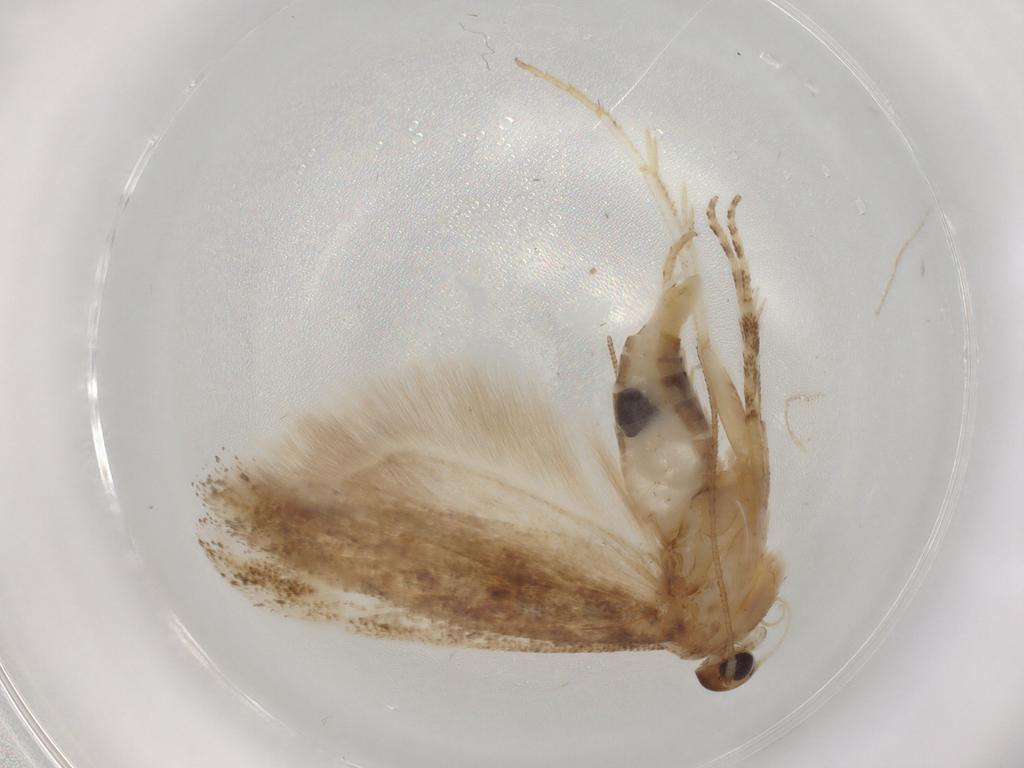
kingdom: Animalia
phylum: Arthropoda
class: Insecta
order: Lepidoptera
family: Gelechiidae
